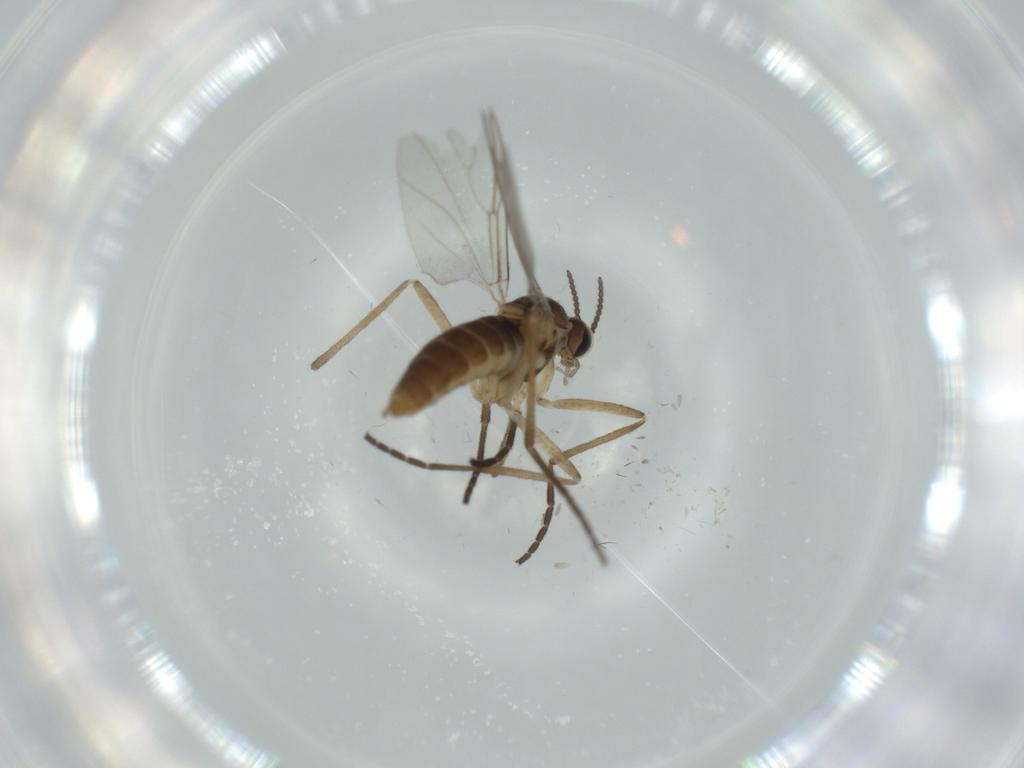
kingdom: Animalia
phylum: Arthropoda
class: Insecta
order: Diptera
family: Cecidomyiidae
